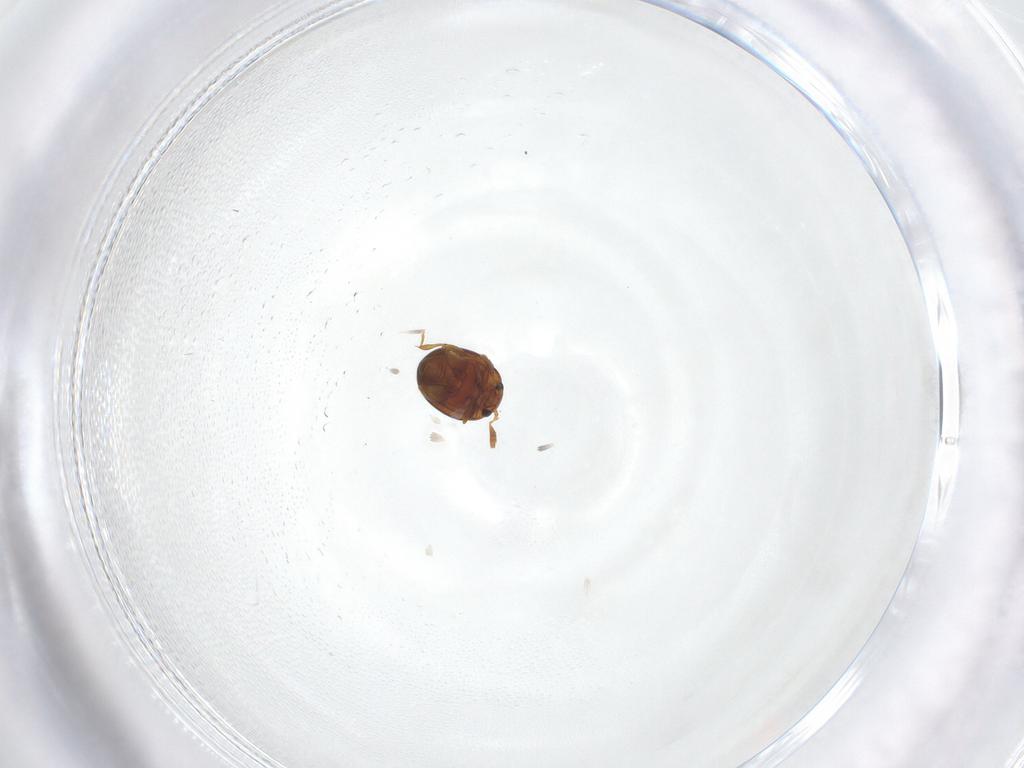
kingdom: Animalia
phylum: Arthropoda
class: Insecta
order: Coleoptera
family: Chrysomelidae
